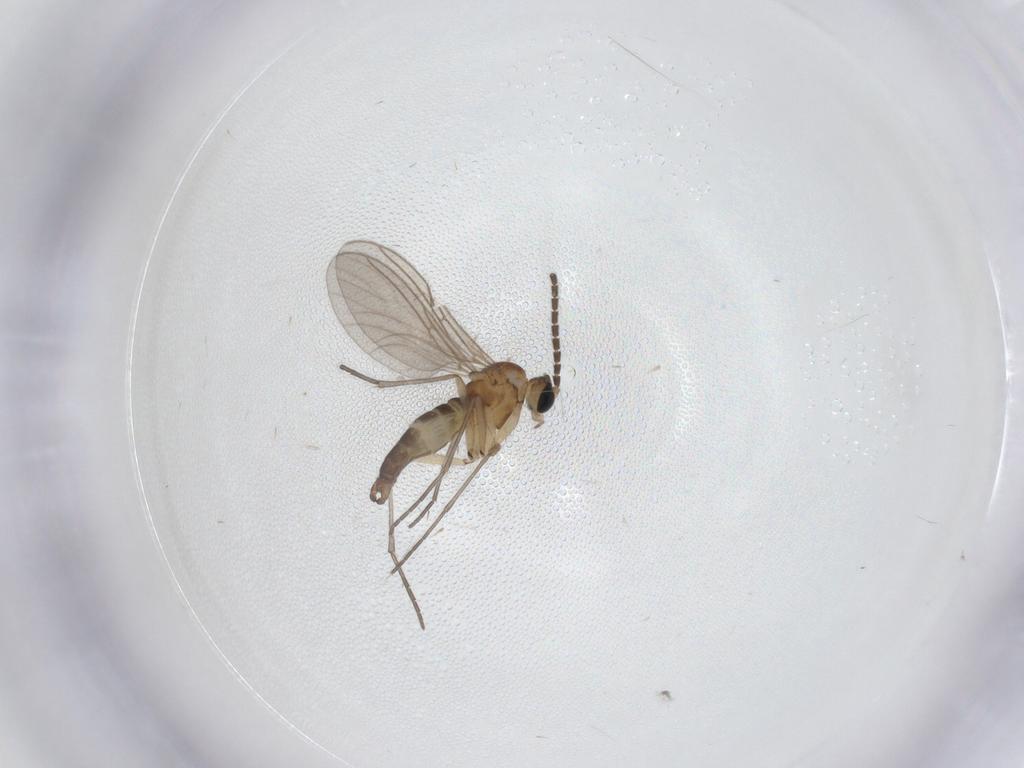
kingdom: Animalia
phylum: Arthropoda
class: Insecta
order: Diptera
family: Sciaridae
